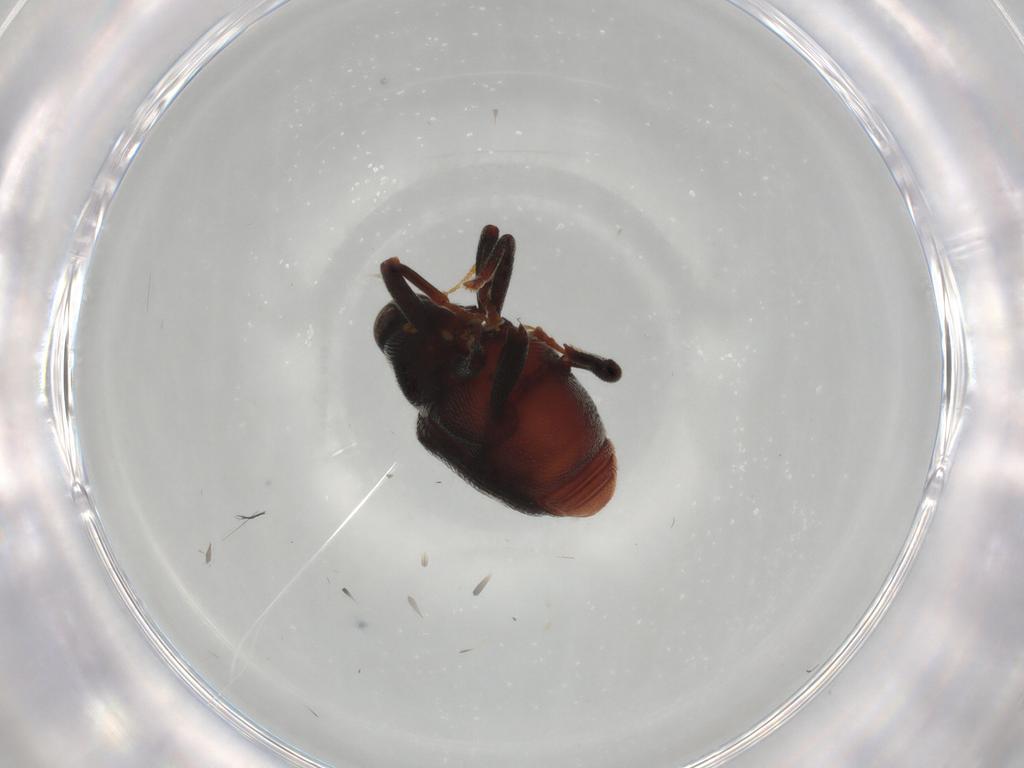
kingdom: Animalia
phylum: Arthropoda
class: Insecta
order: Coleoptera
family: Curculionidae
